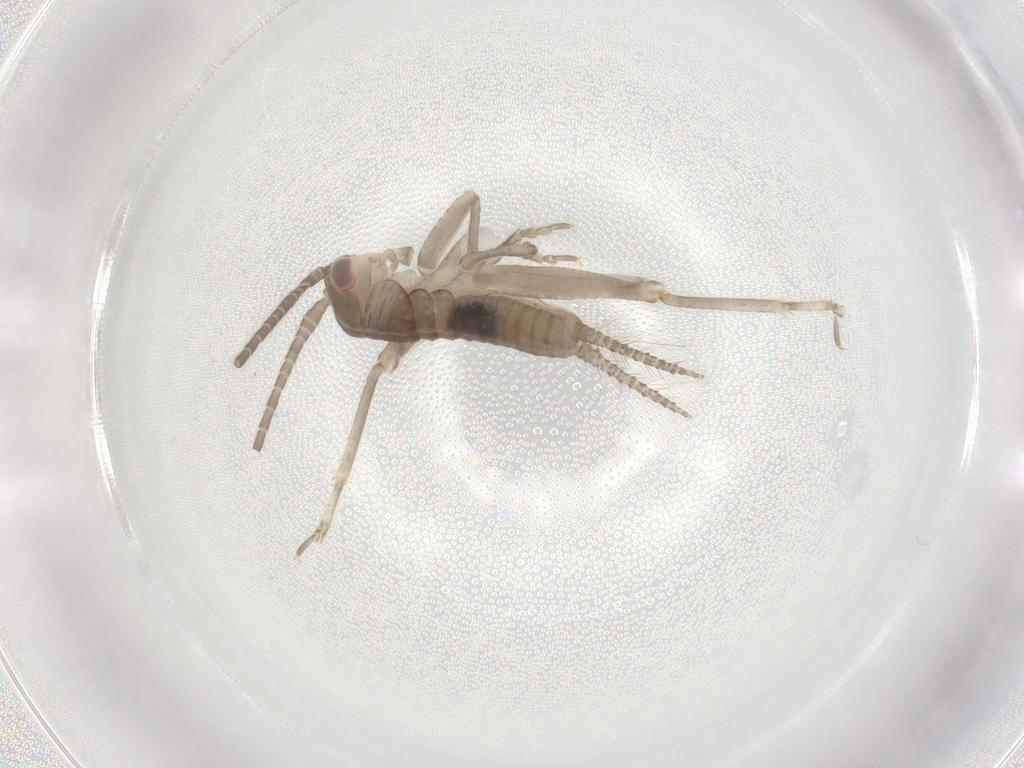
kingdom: Animalia
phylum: Arthropoda
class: Insecta
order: Orthoptera
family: Gryllidae
